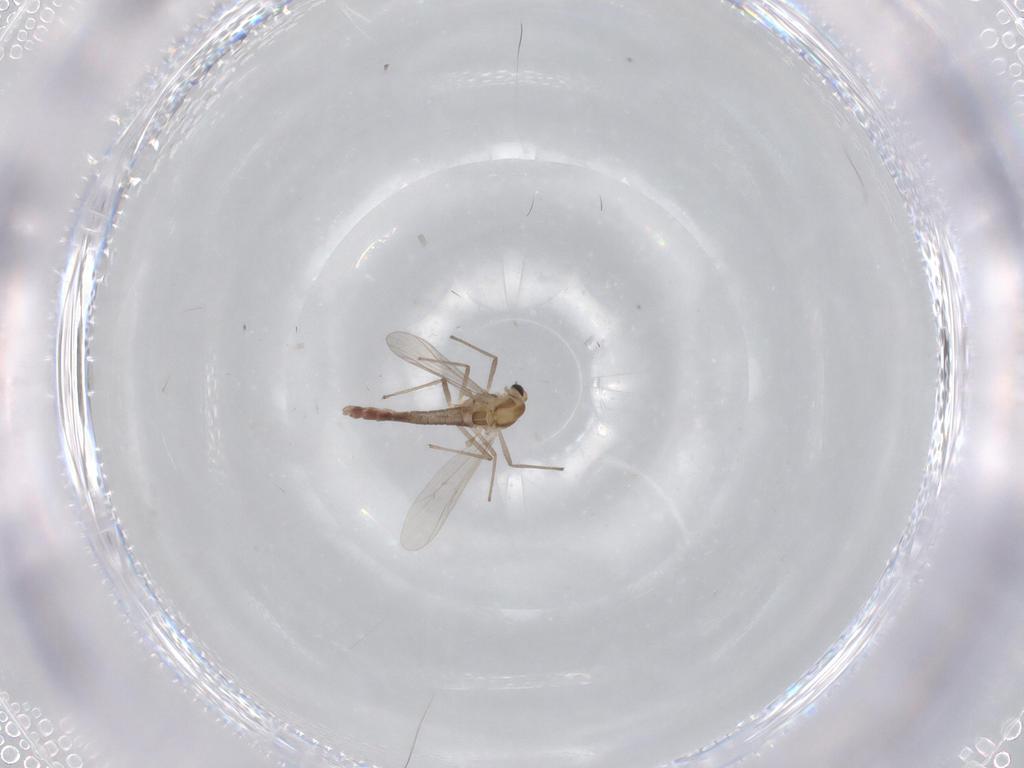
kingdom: Animalia
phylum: Arthropoda
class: Insecta
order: Diptera
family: Chironomidae
